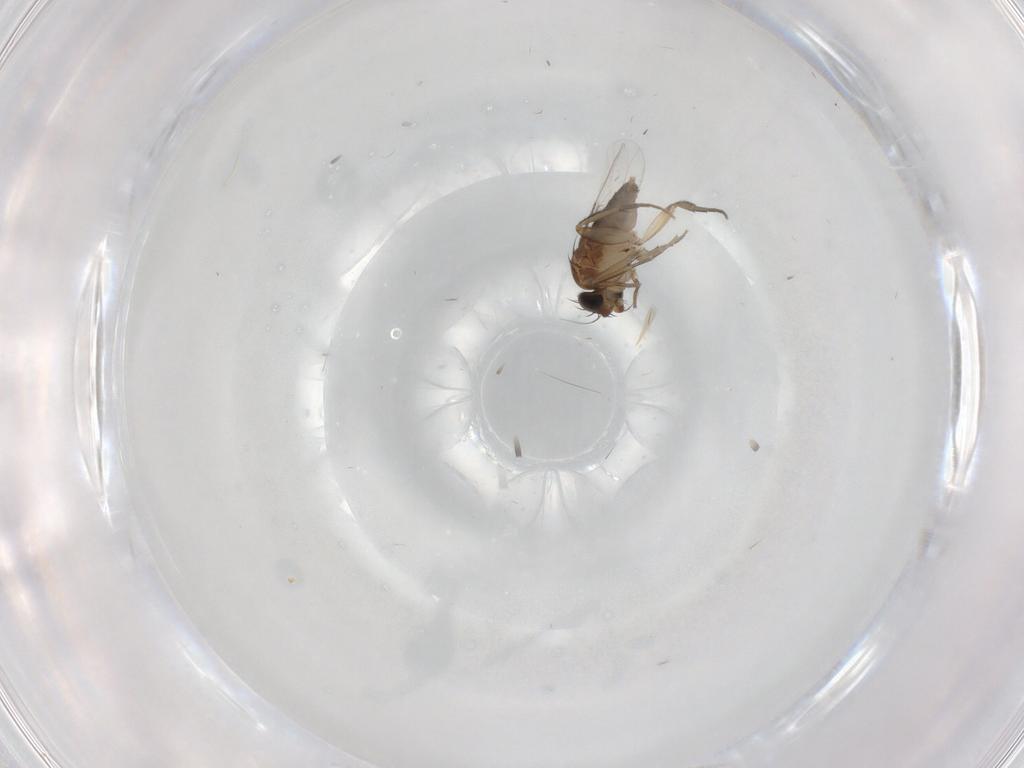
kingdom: Animalia
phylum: Arthropoda
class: Insecta
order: Diptera
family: Phoridae
